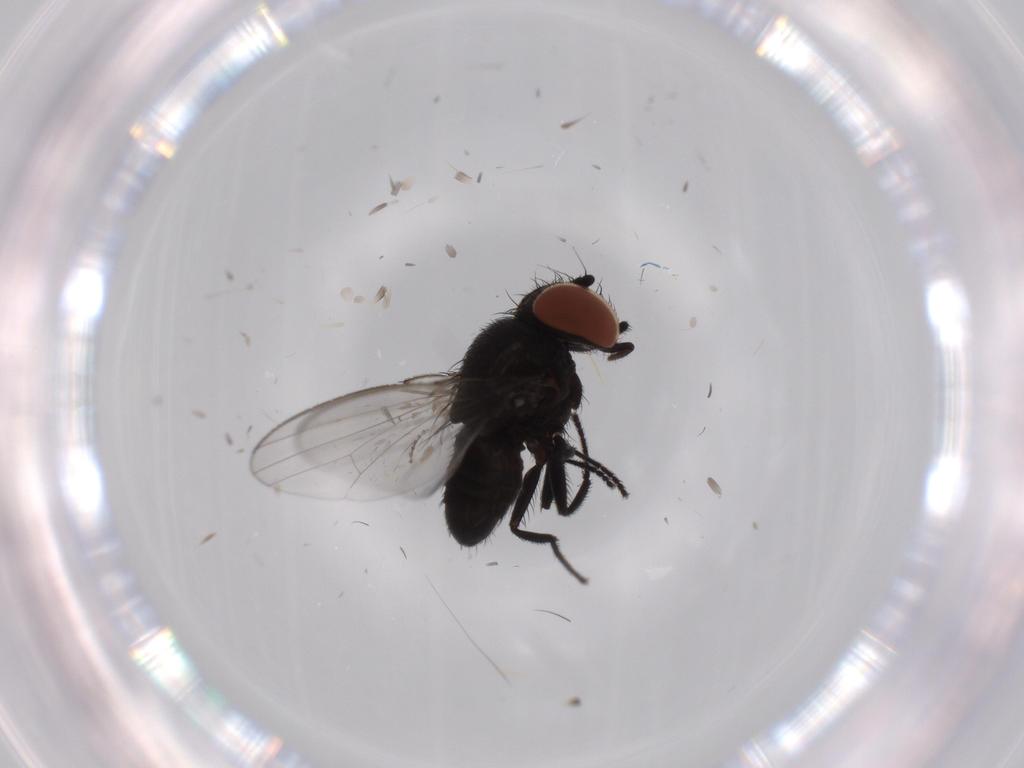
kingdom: Animalia
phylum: Arthropoda
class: Insecta
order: Diptera
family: Milichiidae
